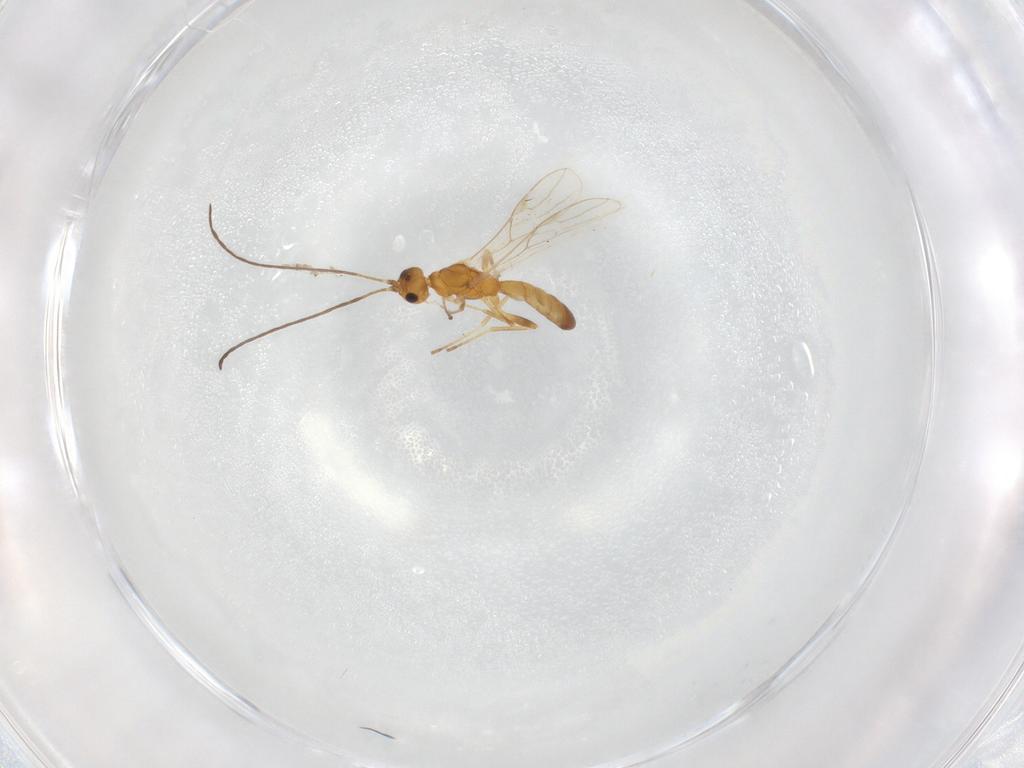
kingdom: Animalia
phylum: Arthropoda
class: Insecta
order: Hymenoptera
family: Braconidae
